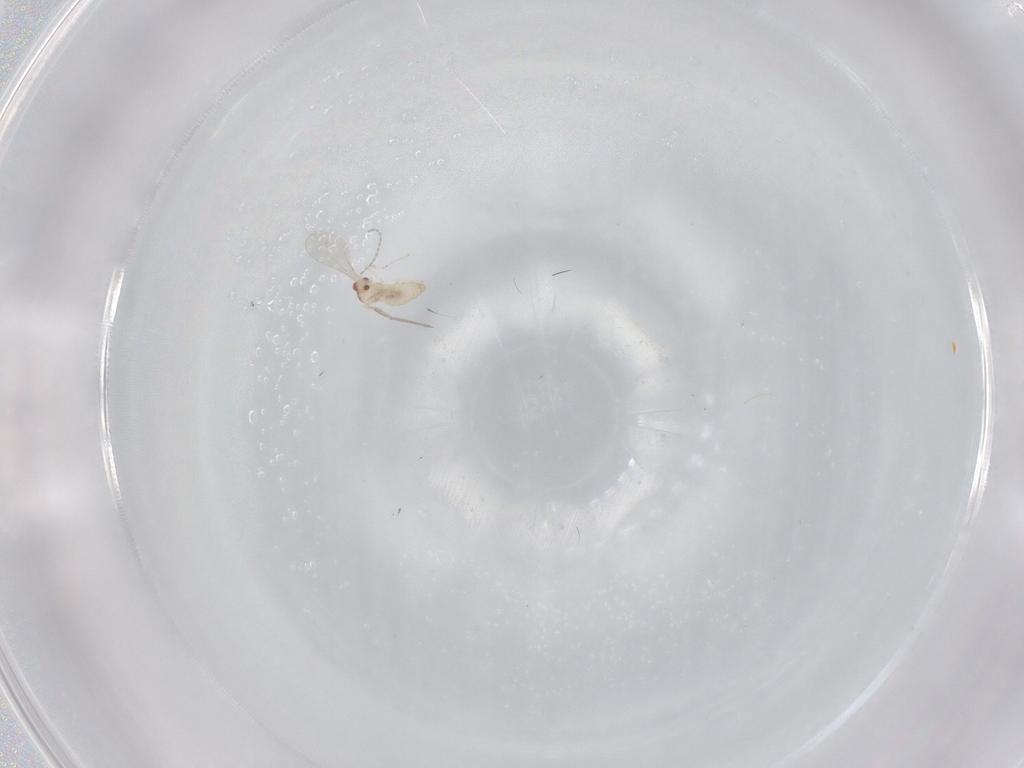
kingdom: Animalia
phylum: Arthropoda
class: Insecta
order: Diptera
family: Cecidomyiidae
